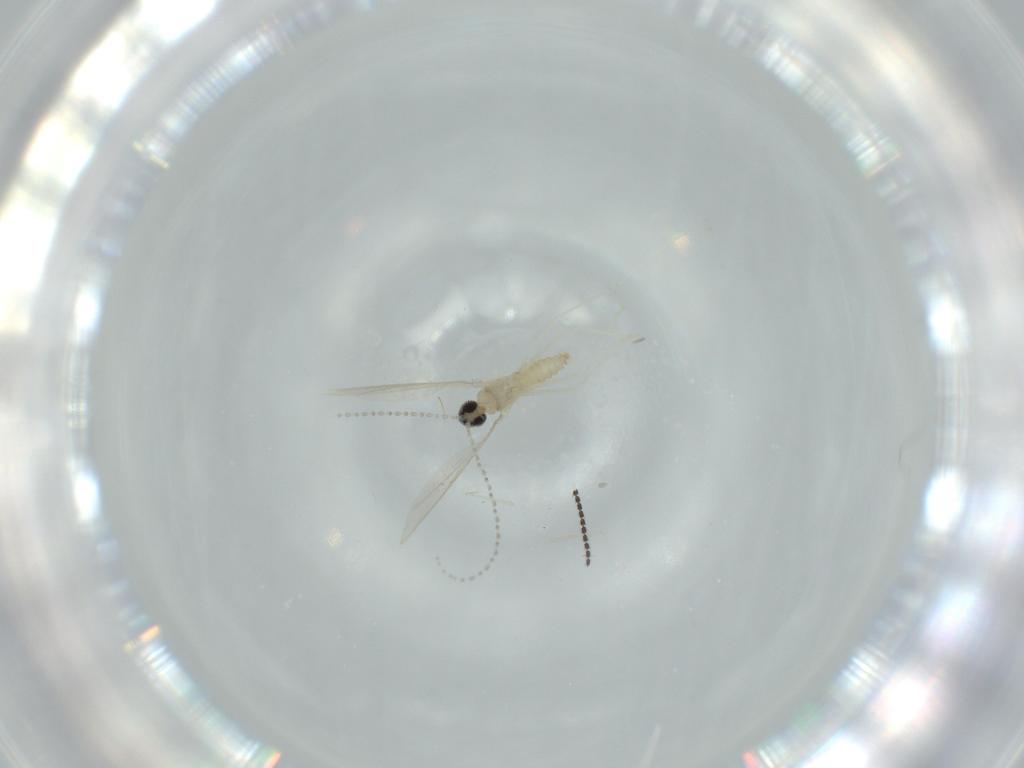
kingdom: Animalia
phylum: Arthropoda
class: Insecta
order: Diptera
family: Cecidomyiidae
